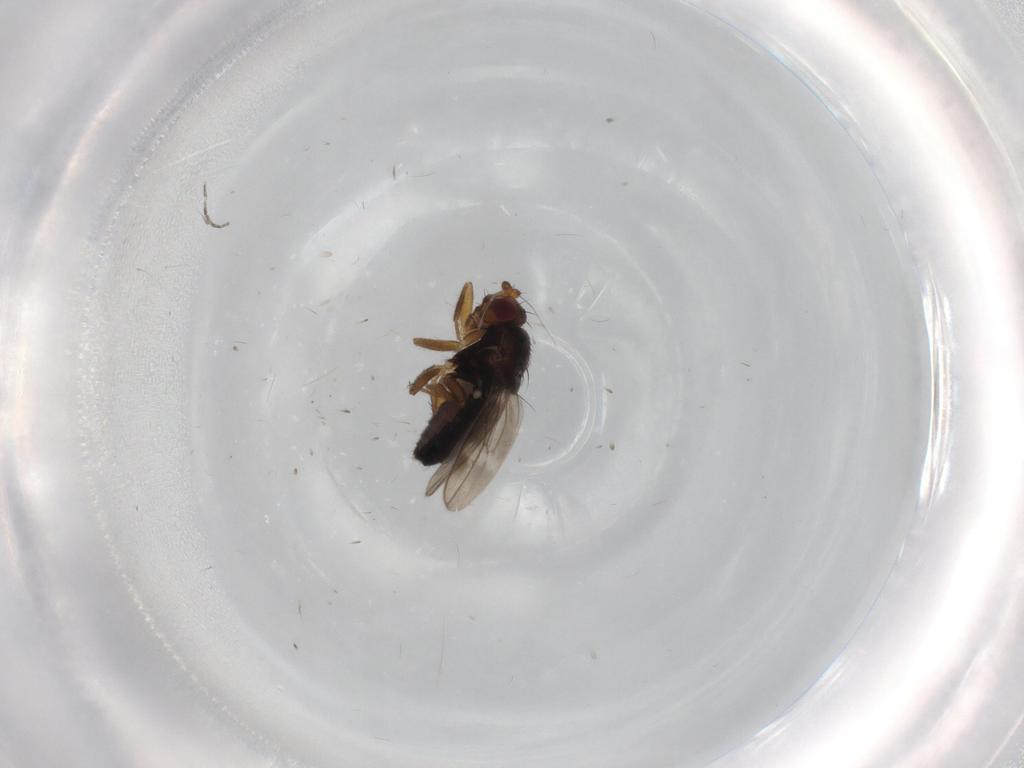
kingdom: Animalia
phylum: Arthropoda
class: Insecta
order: Diptera
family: Sphaeroceridae
